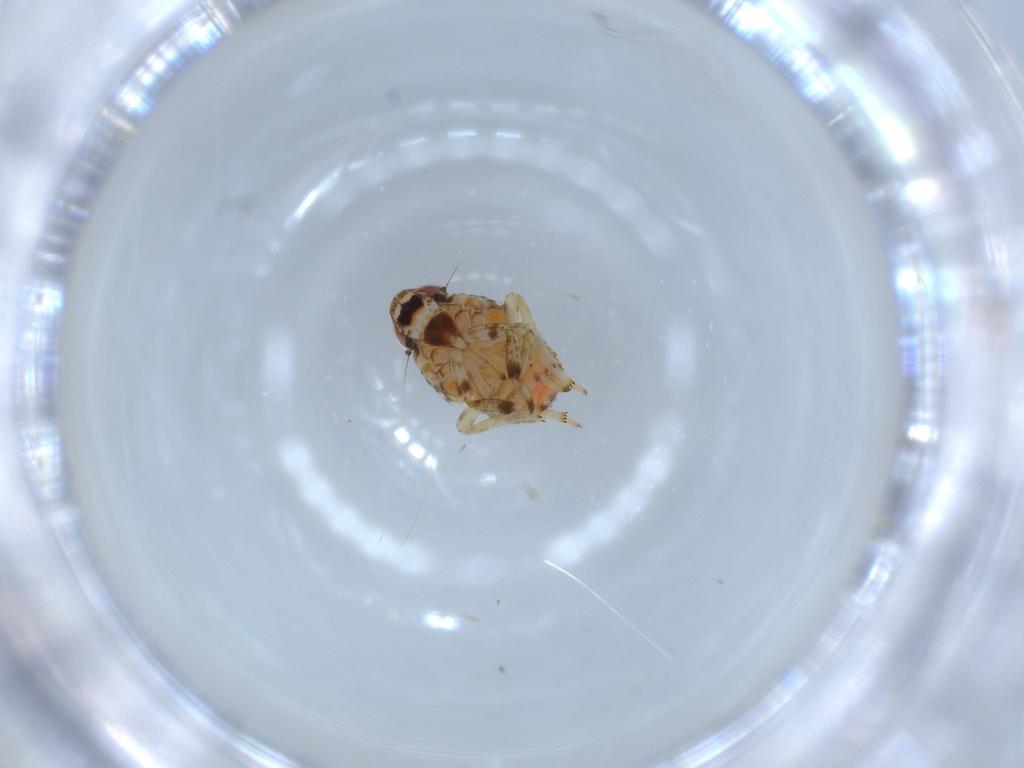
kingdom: Animalia
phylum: Arthropoda
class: Insecta
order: Hemiptera
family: Issidae
